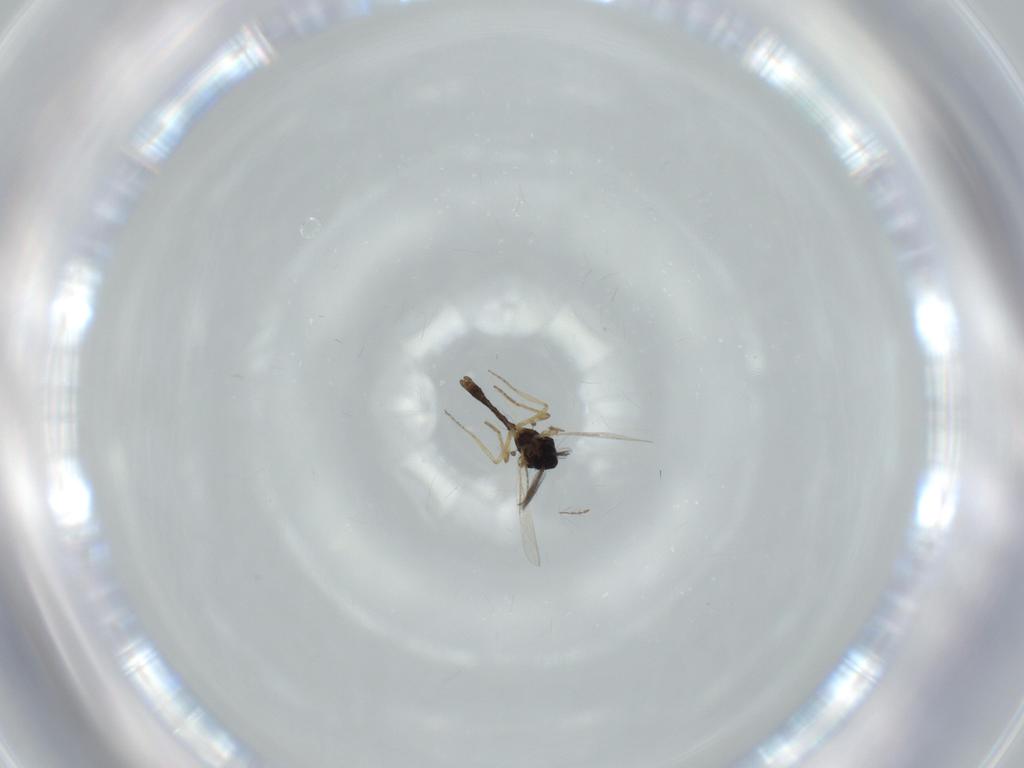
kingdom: Animalia
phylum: Arthropoda
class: Insecta
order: Diptera
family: Ceratopogonidae
